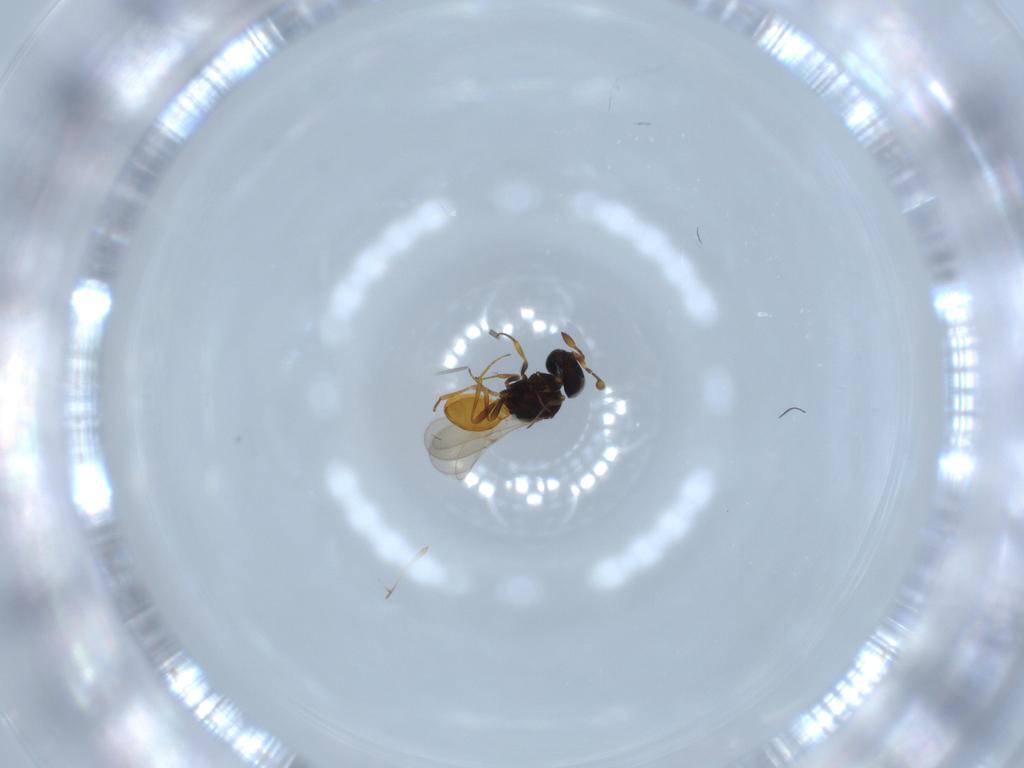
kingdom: Animalia
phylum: Arthropoda
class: Insecta
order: Hymenoptera
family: Scelionidae
